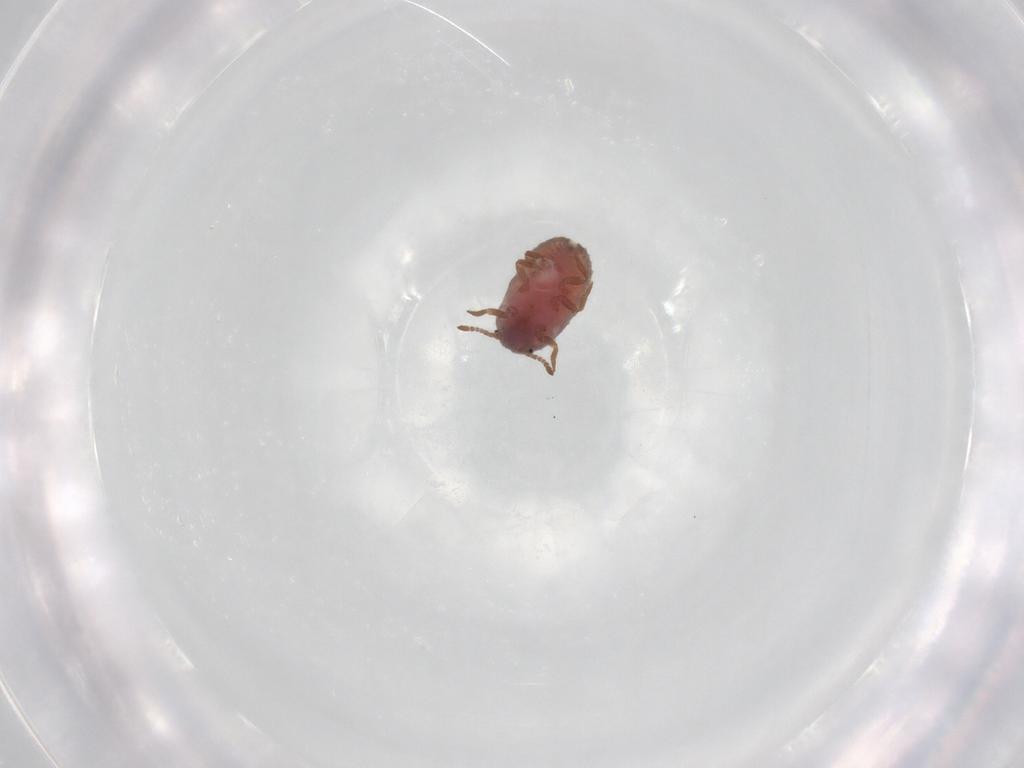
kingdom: Animalia
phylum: Arthropoda
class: Insecta
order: Hemiptera
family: Putoidae
